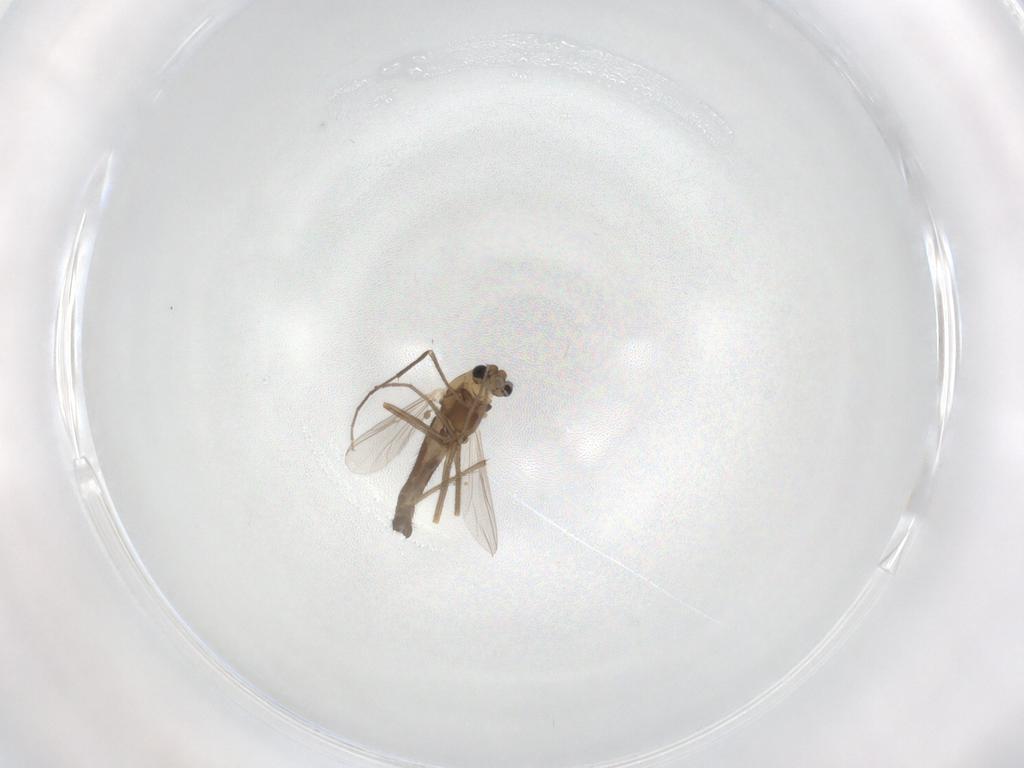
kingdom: Animalia
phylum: Arthropoda
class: Insecta
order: Diptera
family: Chironomidae
